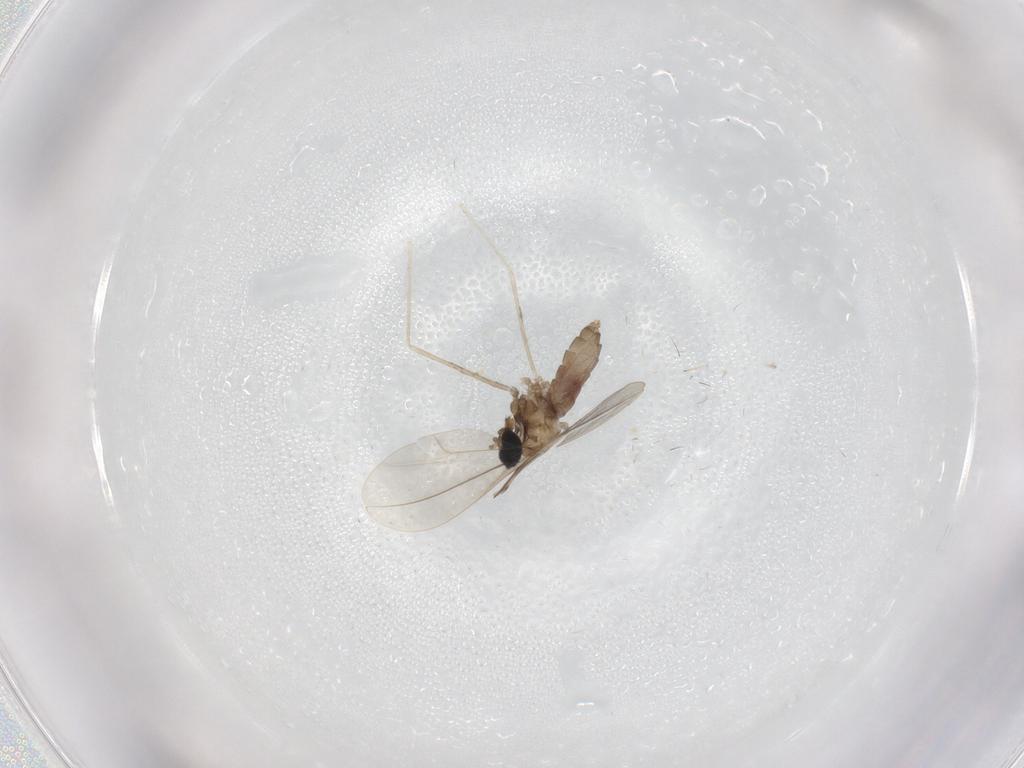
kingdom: Animalia
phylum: Arthropoda
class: Insecta
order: Diptera
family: Cecidomyiidae
